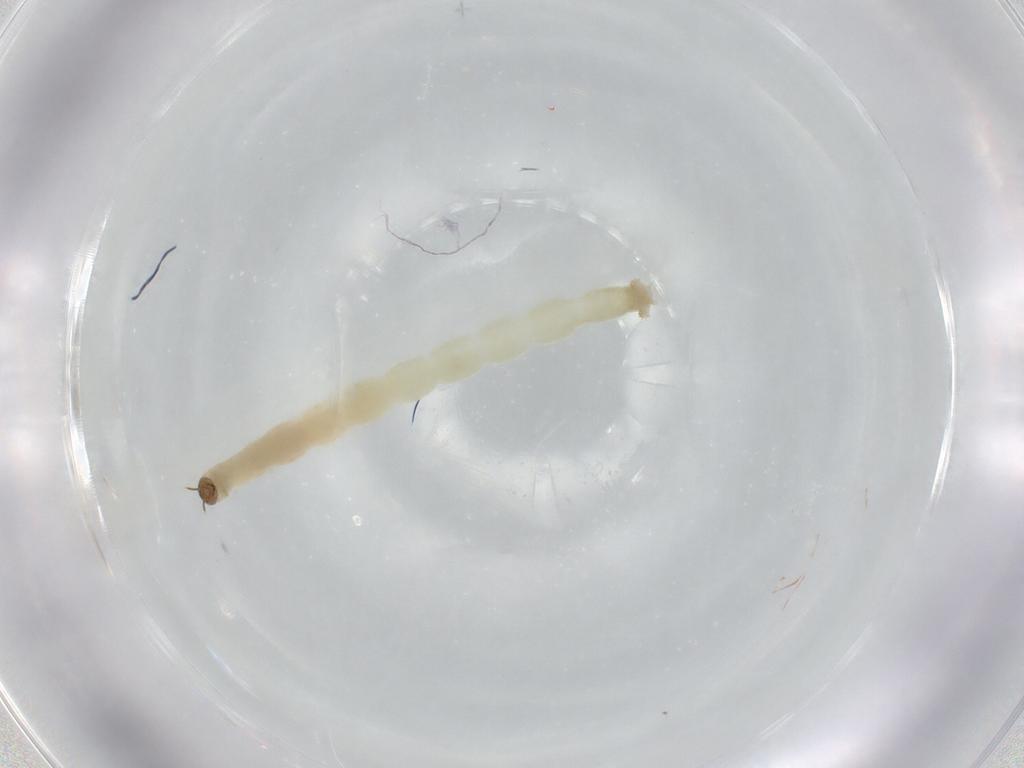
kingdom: Animalia
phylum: Arthropoda
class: Insecta
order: Diptera
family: Chironomidae
